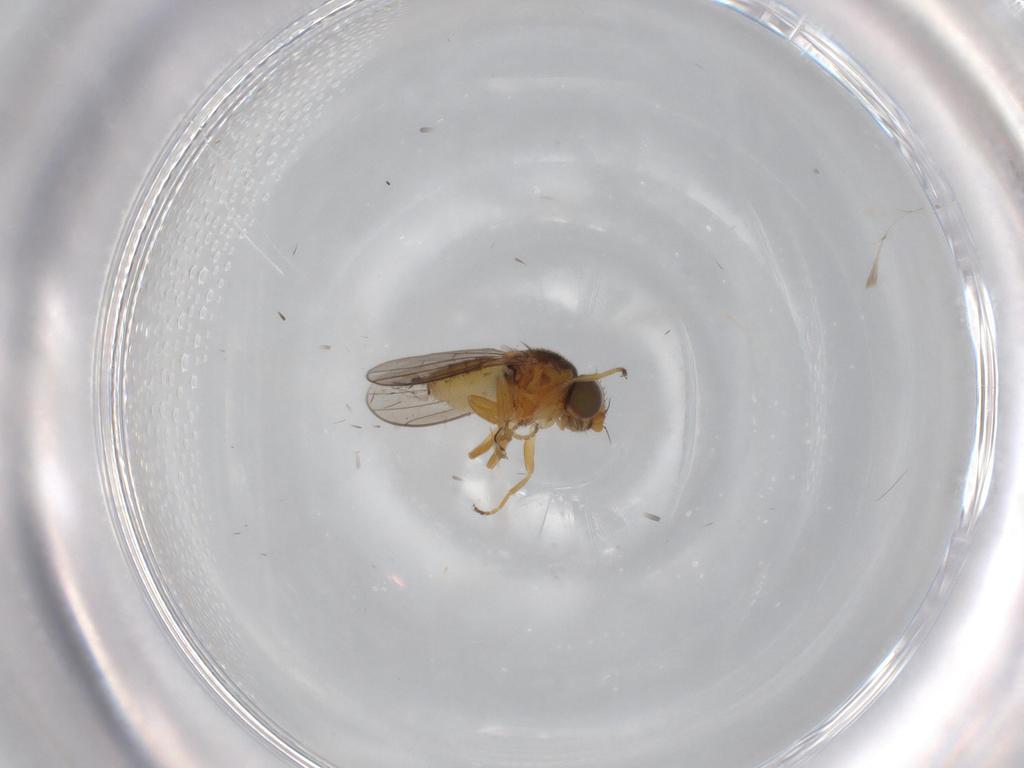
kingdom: Animalia
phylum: Arthropoda
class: Insecta
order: Diptera
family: Chloropidae
